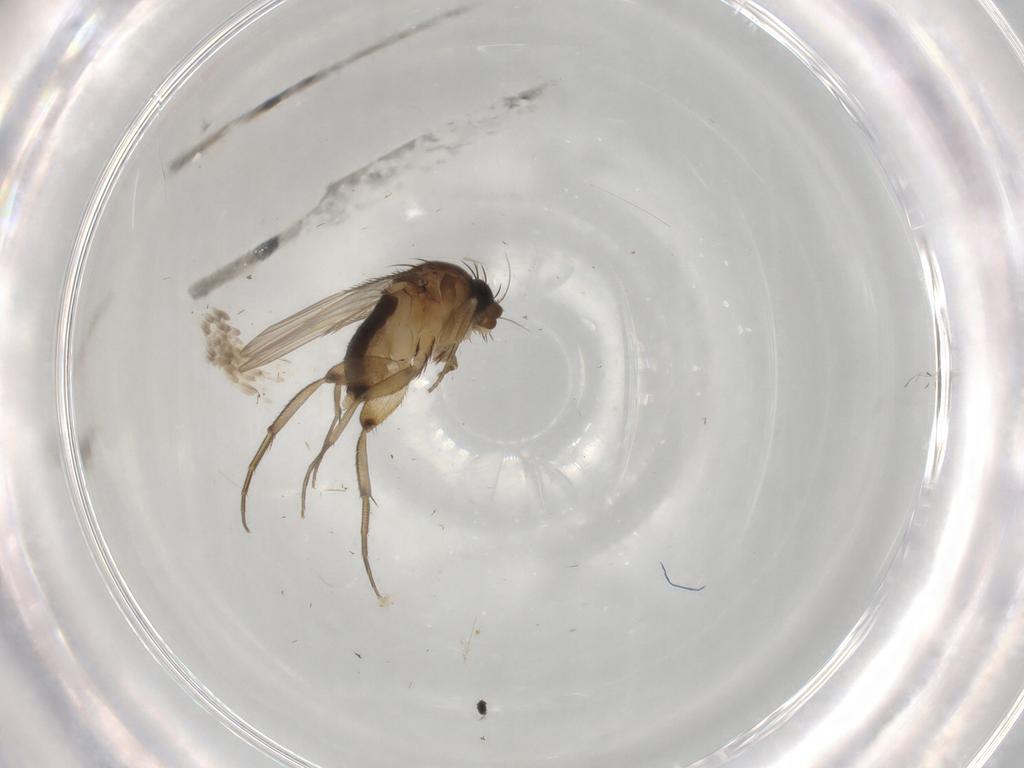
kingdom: Animalia
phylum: Arthropoda
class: Insecta
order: Diptera
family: Phoridae
